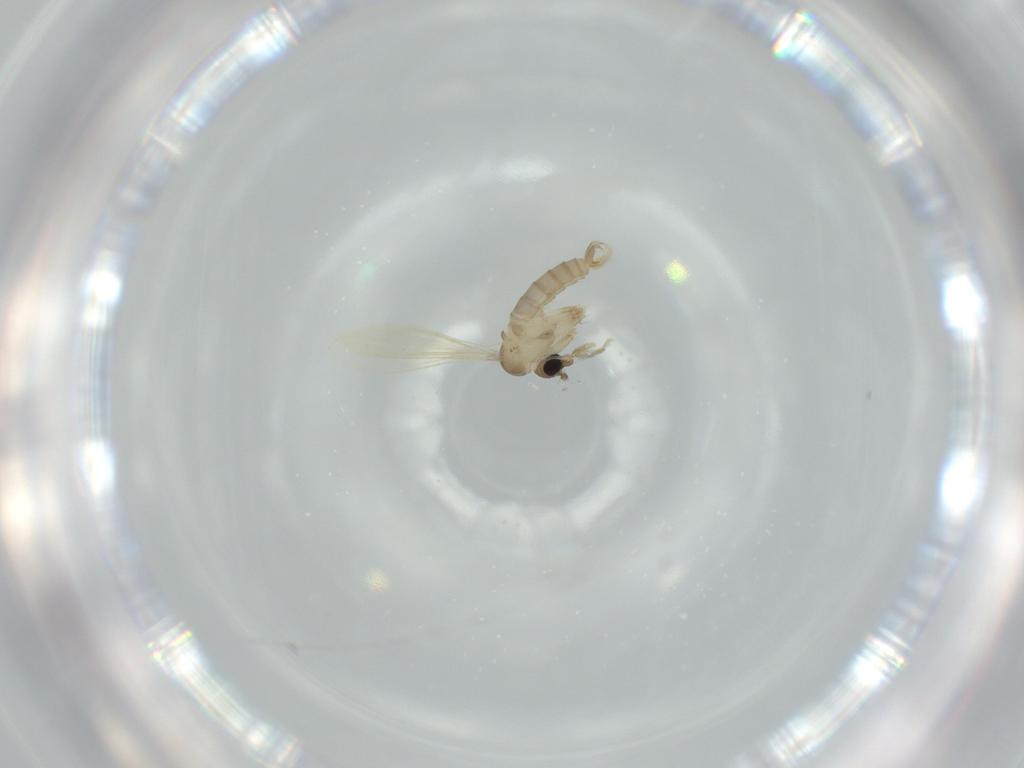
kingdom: Animalia
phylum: Arthropoda
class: Insecta
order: Diptera
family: Psychodidae
